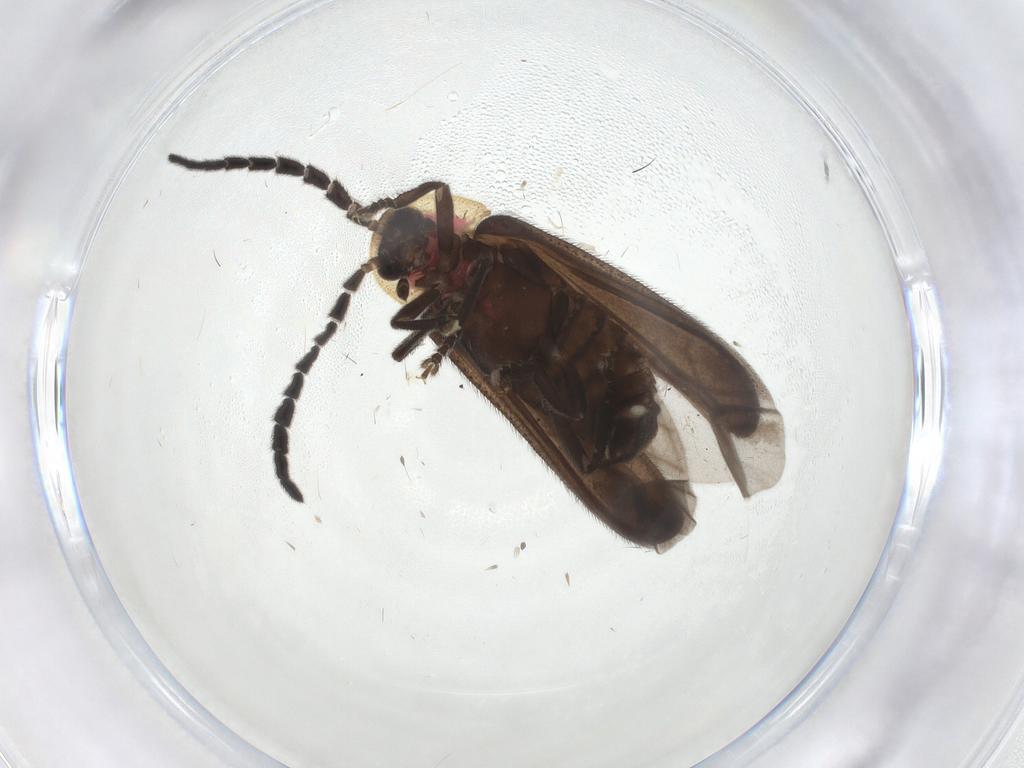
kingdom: Animalia
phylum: Arthropoda
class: Insecta
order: Coleoptera
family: Lampyridae
